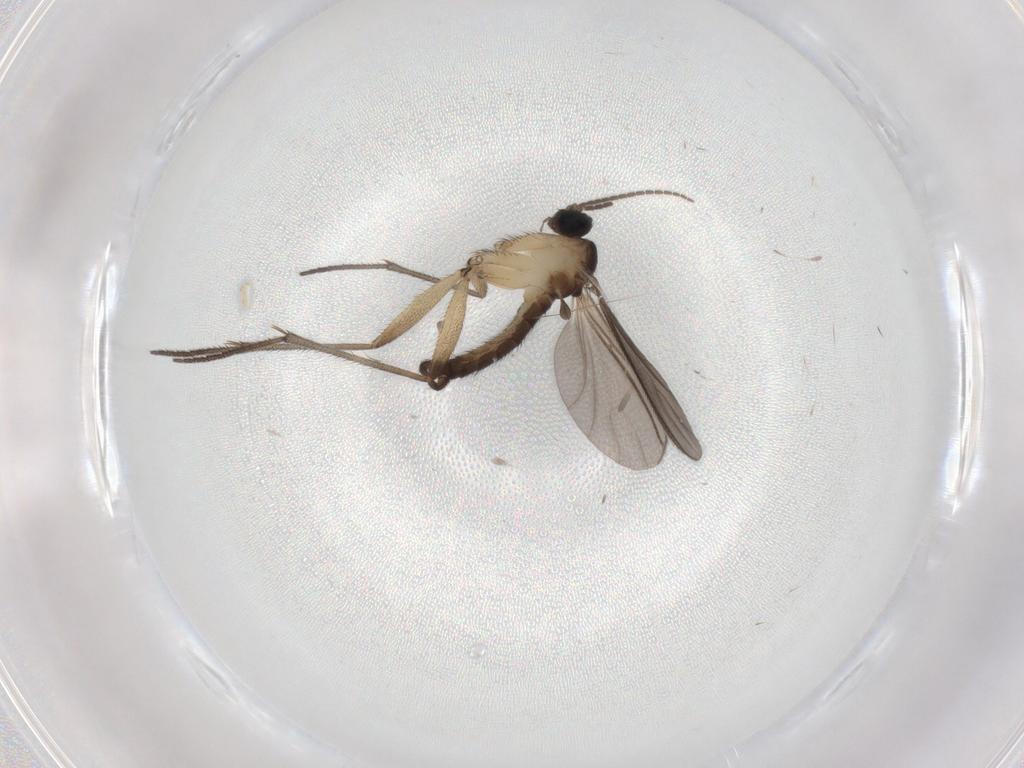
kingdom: Animalia
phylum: Arthropoda
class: Insecta
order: Diptera
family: Sciaridae
